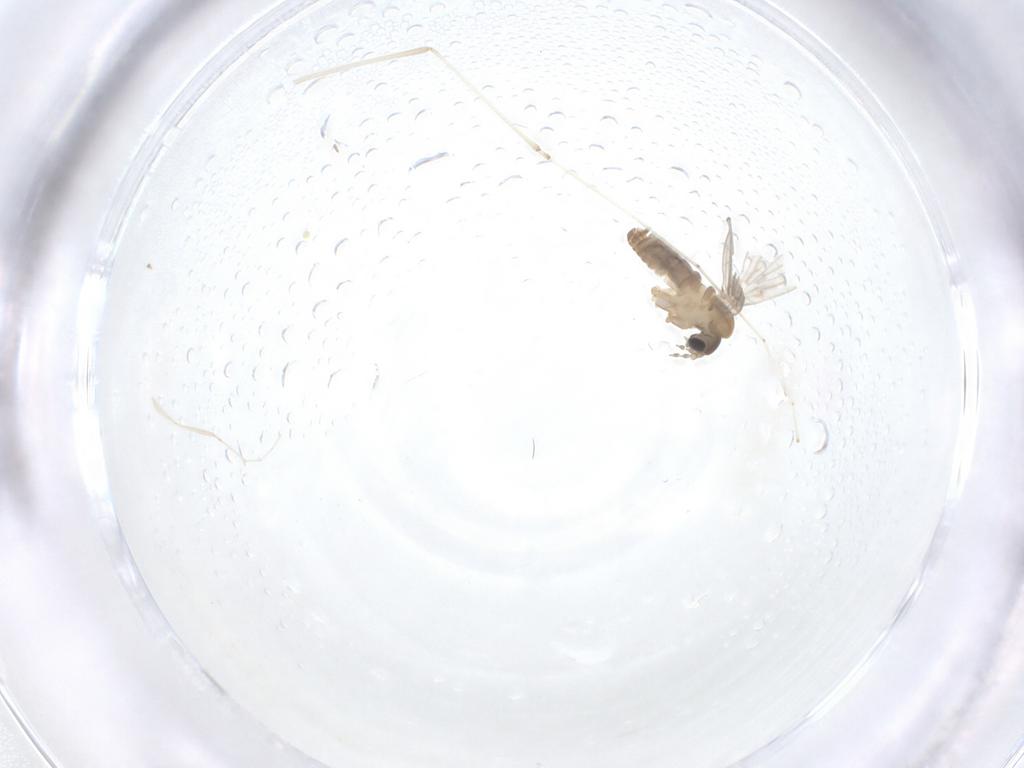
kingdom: Animalia
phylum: Arthropoda
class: Insecta
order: Diptera
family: Psychodidae
